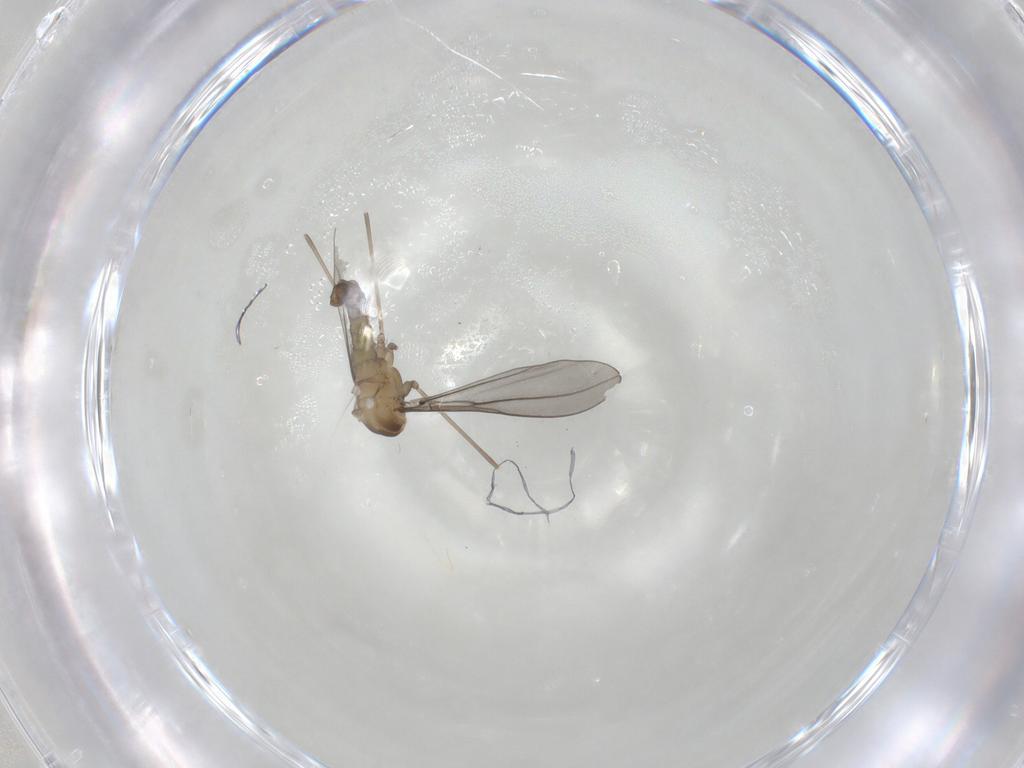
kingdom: Animalia
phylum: Arthropoda
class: Insecta
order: Diptera
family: Cecidomyiidae
